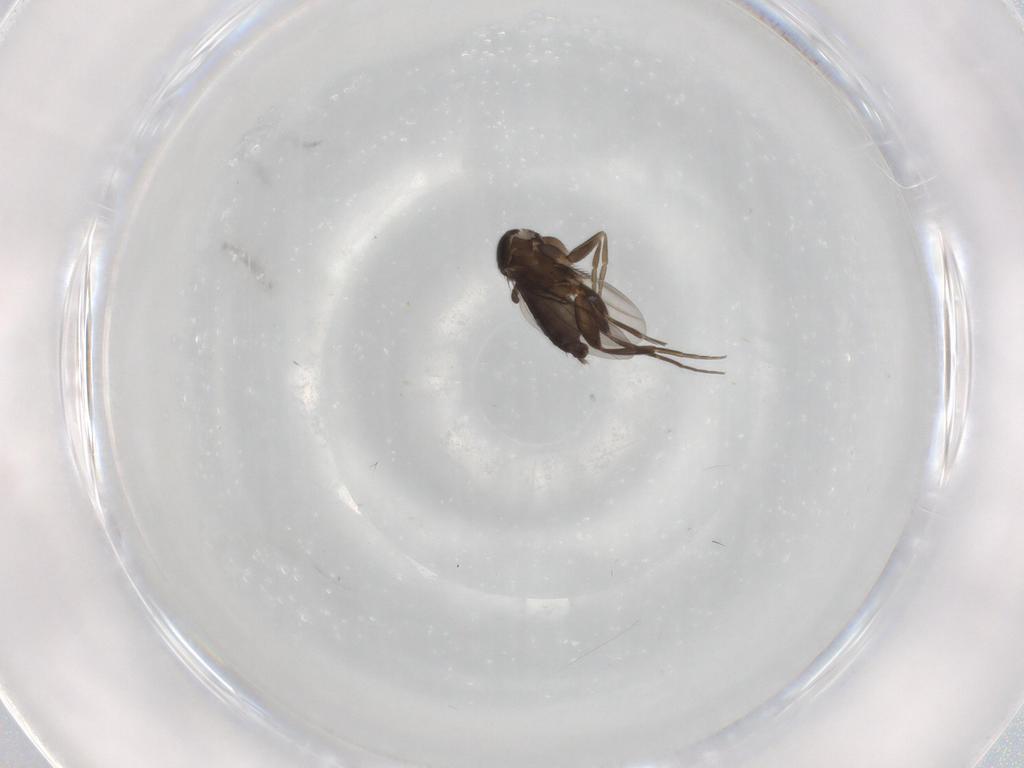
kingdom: Animalia
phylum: Arthropoda
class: Insecta
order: Diptera
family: Phoridae
